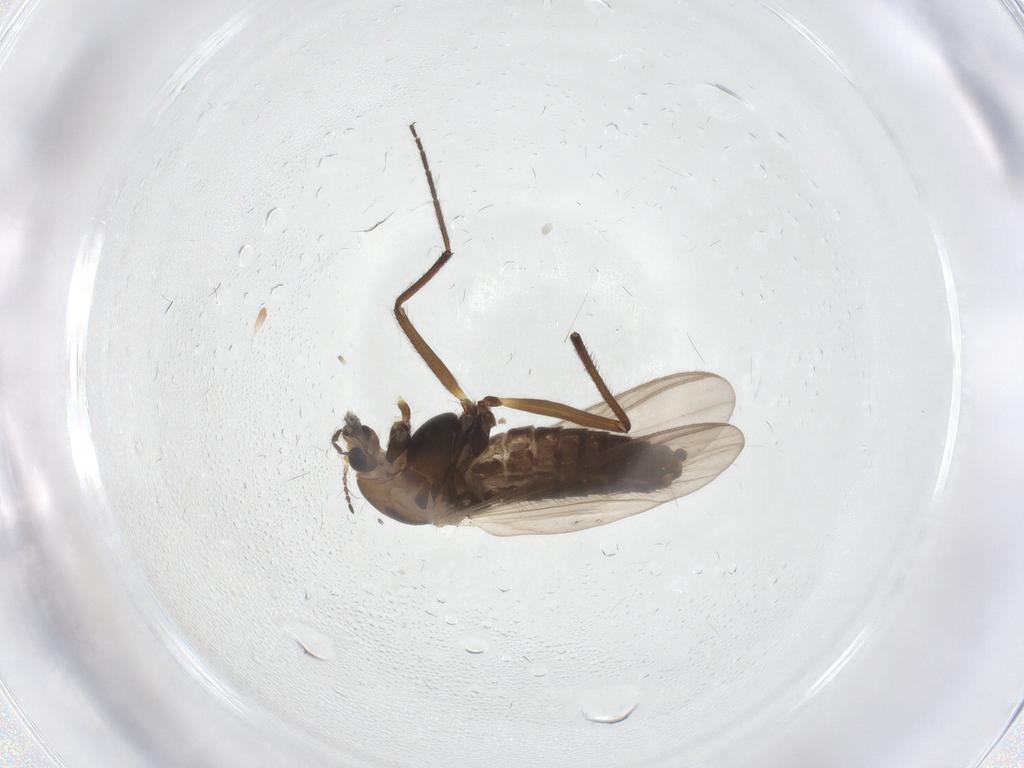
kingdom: Animalia
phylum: Arthropoda
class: Insecta
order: Diptera
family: Chironomidae
